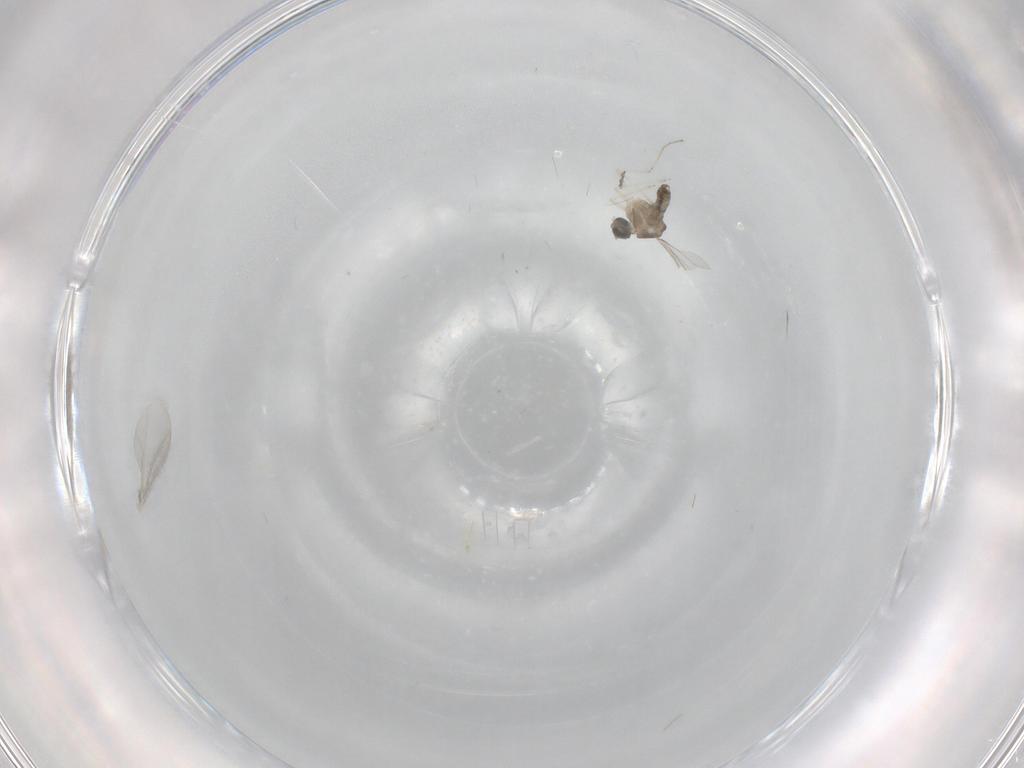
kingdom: Animalia
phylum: Arthropoda
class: Insecta
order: Diptera
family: Cecidomyiidae
